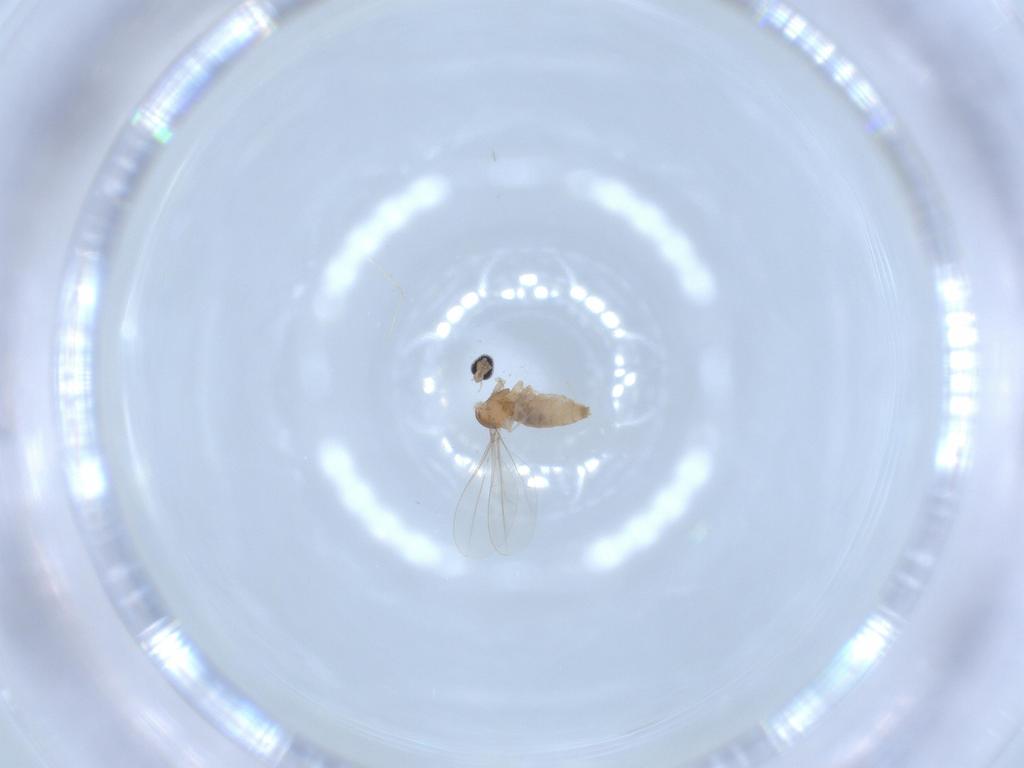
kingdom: Animalia
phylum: Arthropoda
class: Insecta
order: Diptera
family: Cecidomyiidae
